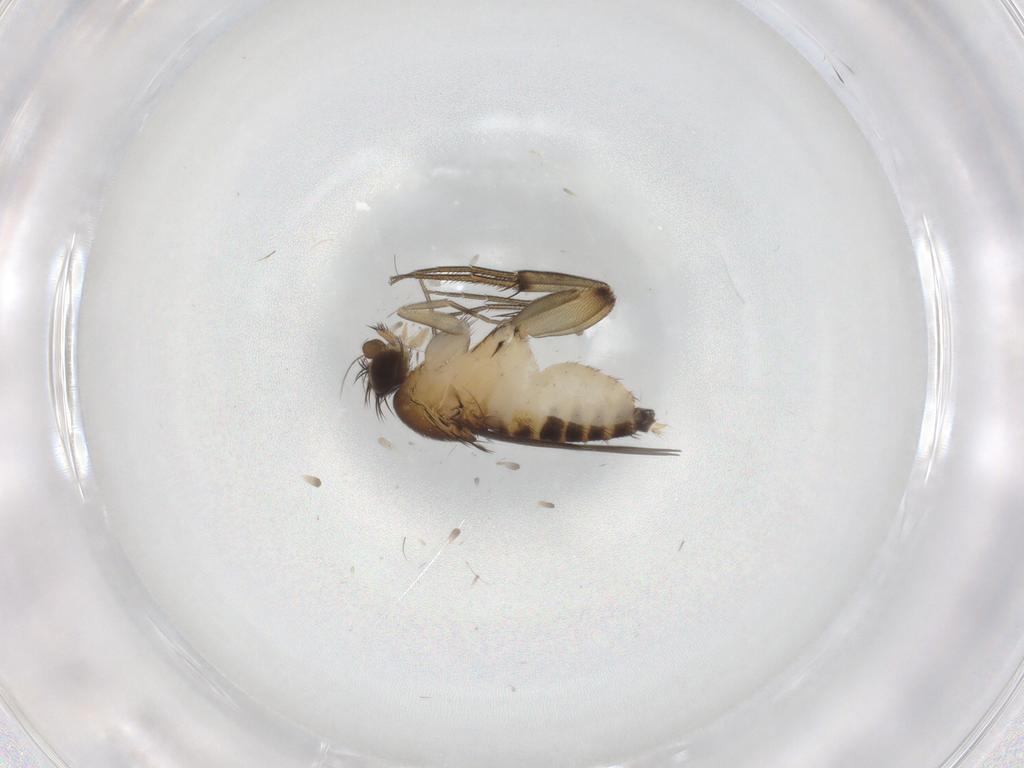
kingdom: Animalia
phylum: Arthropoda
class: Insecta
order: Diptera
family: Phoridae
